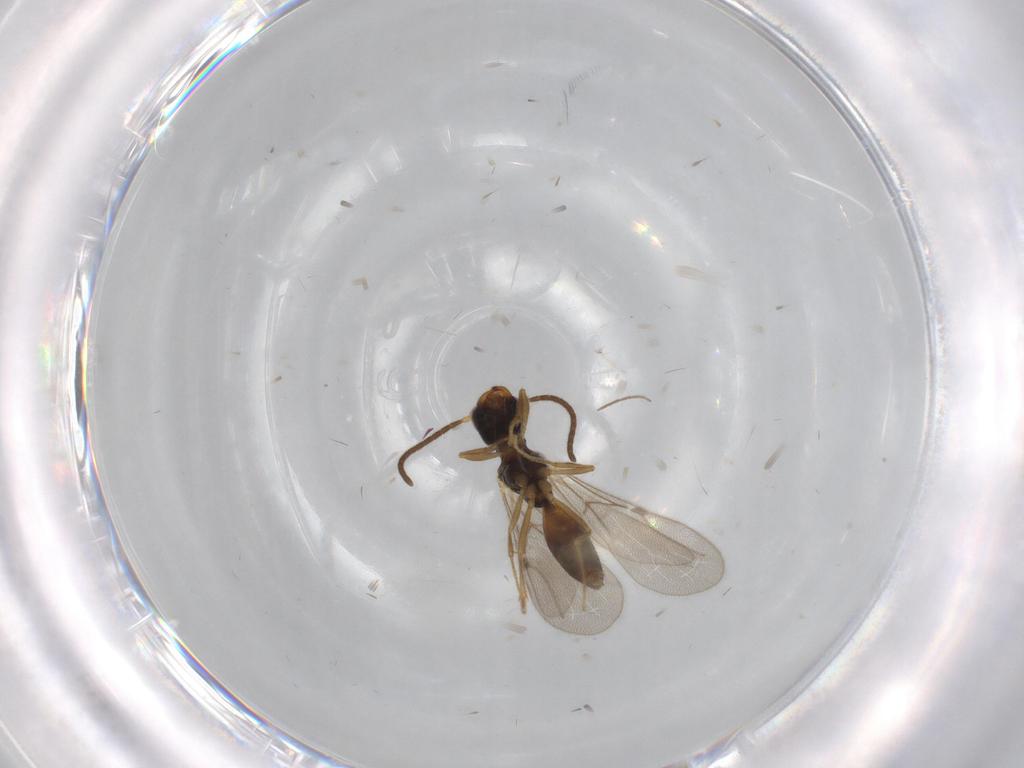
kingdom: Animalia
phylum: Arthropoda
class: Insecta
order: Hymenoptera
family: Bethylidae
